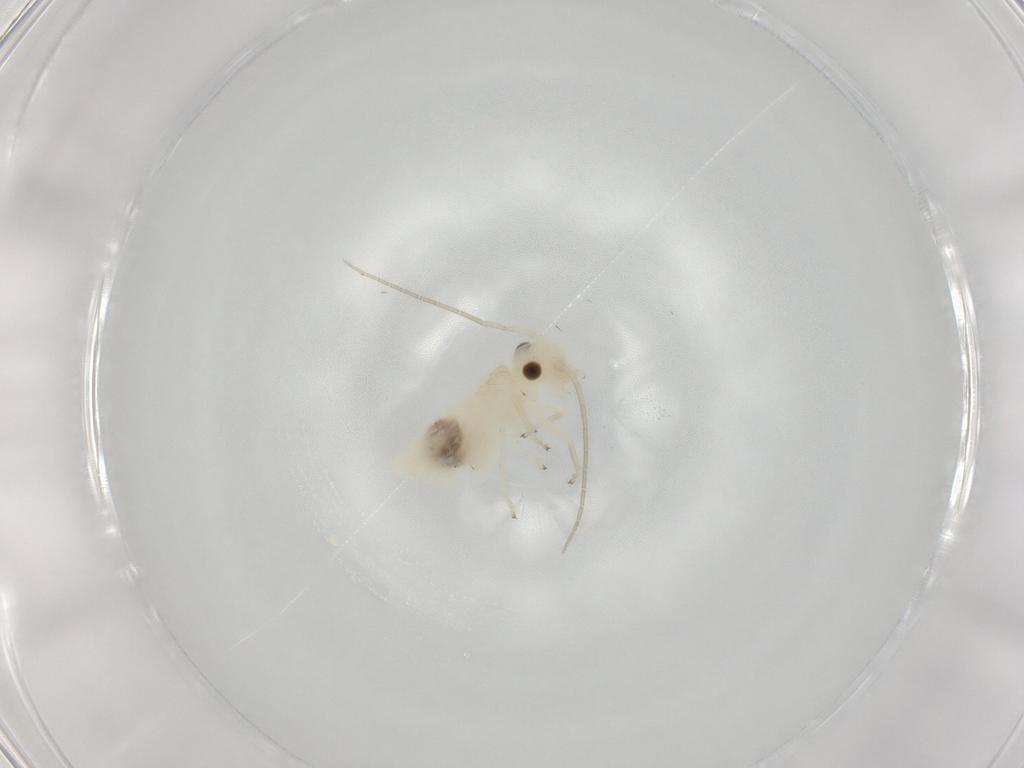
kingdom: Animalia
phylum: Arthropoda
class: Insecta
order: Psocodea
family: Caeciliusidae
